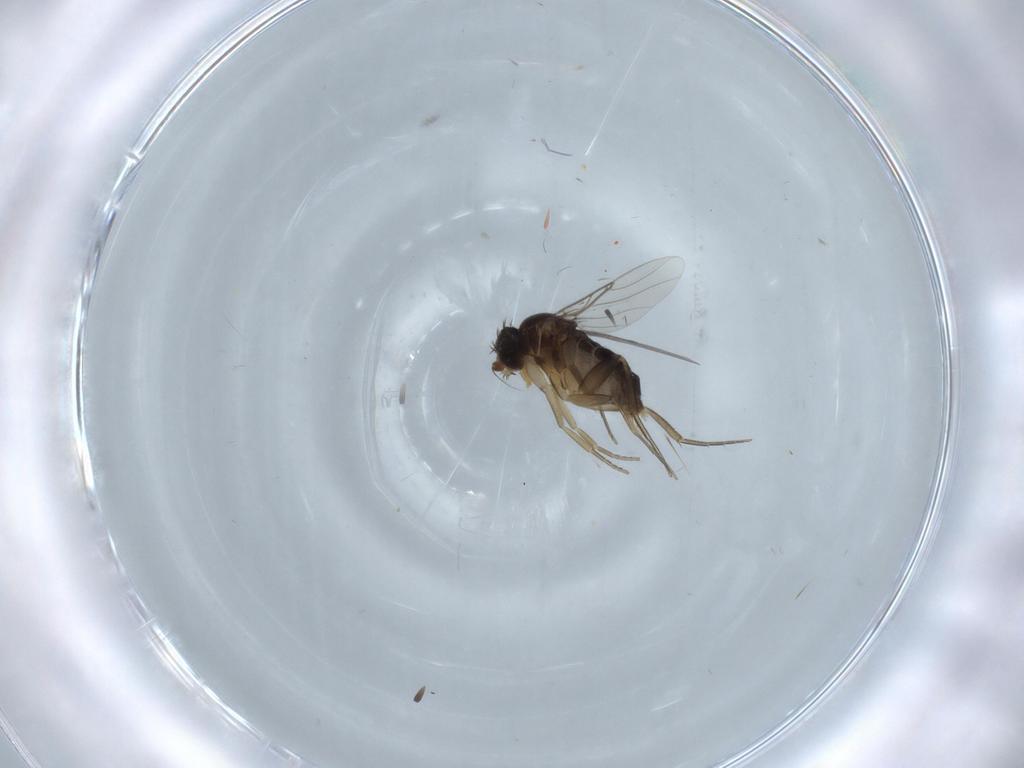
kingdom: Animalia
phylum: Arthropoda
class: Insecta
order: Diptera
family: Phoridae
